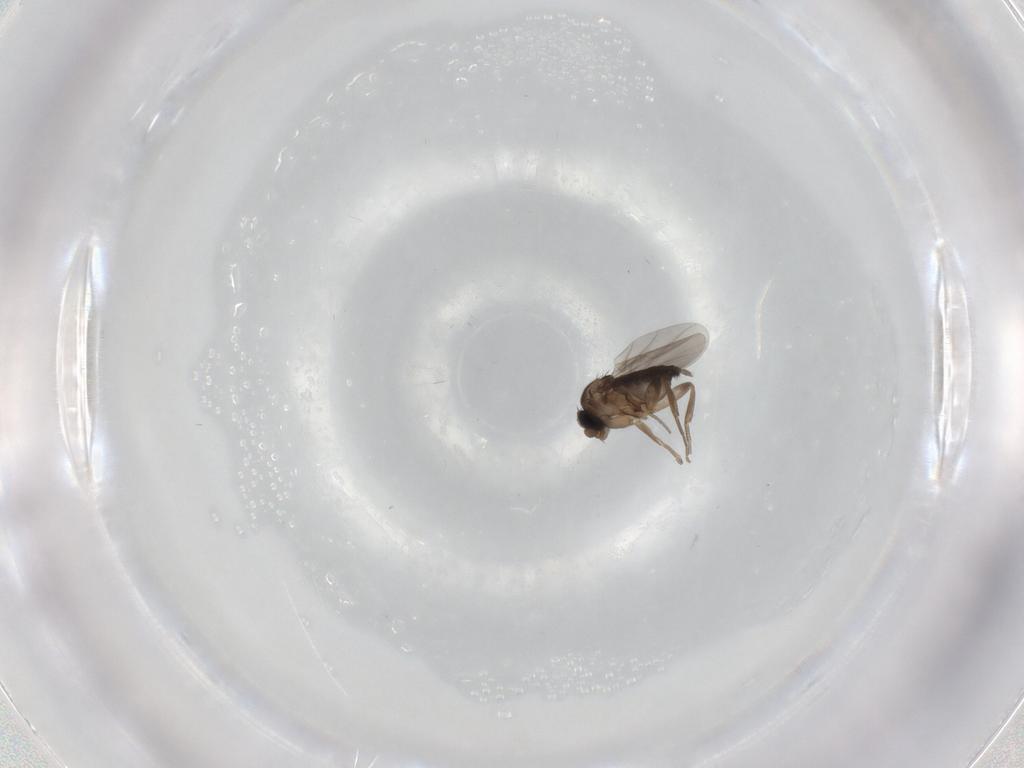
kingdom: Animalia
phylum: Arthropoda
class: Insecta
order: Diptera
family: Phoridae
